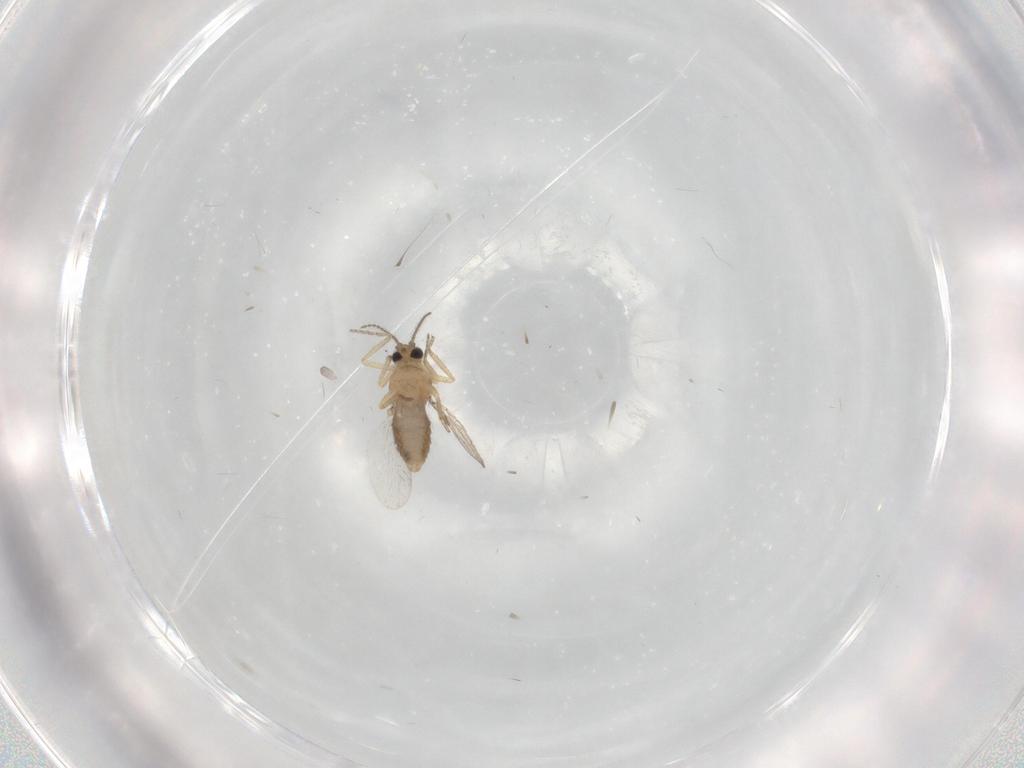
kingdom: Animalia
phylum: Arthropoda
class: Insecta
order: Diptera
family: Ceratopogonidae
